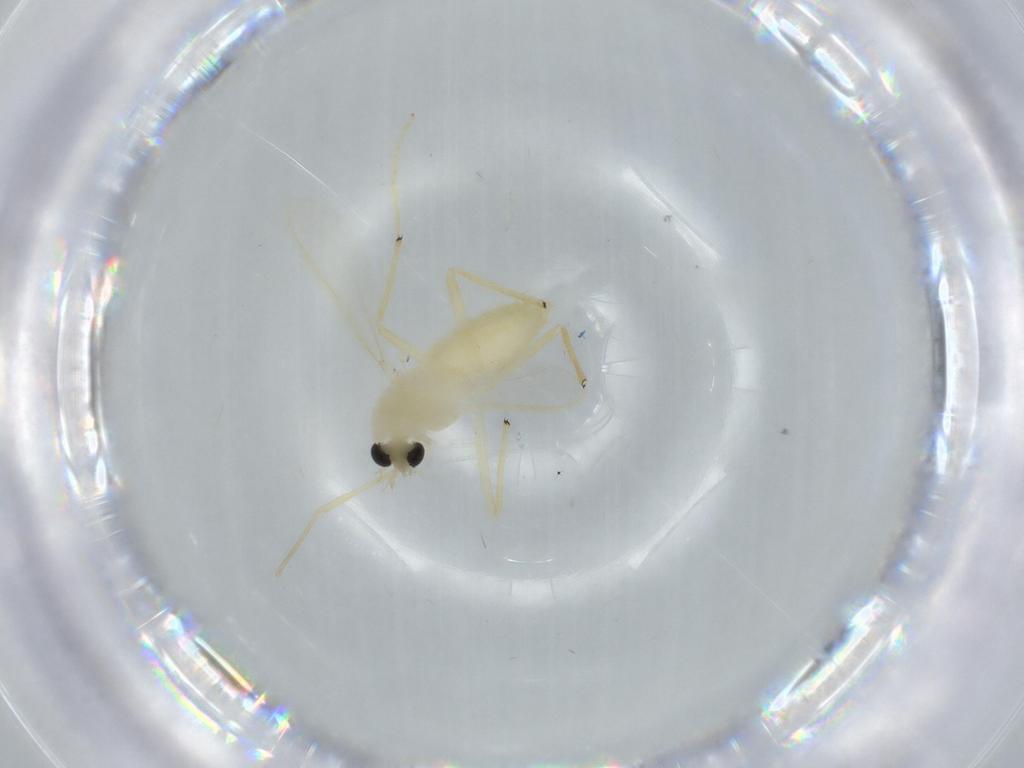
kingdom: Animalia
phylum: Arthropoda
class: Insecta
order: Diptera
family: Chironomidae
